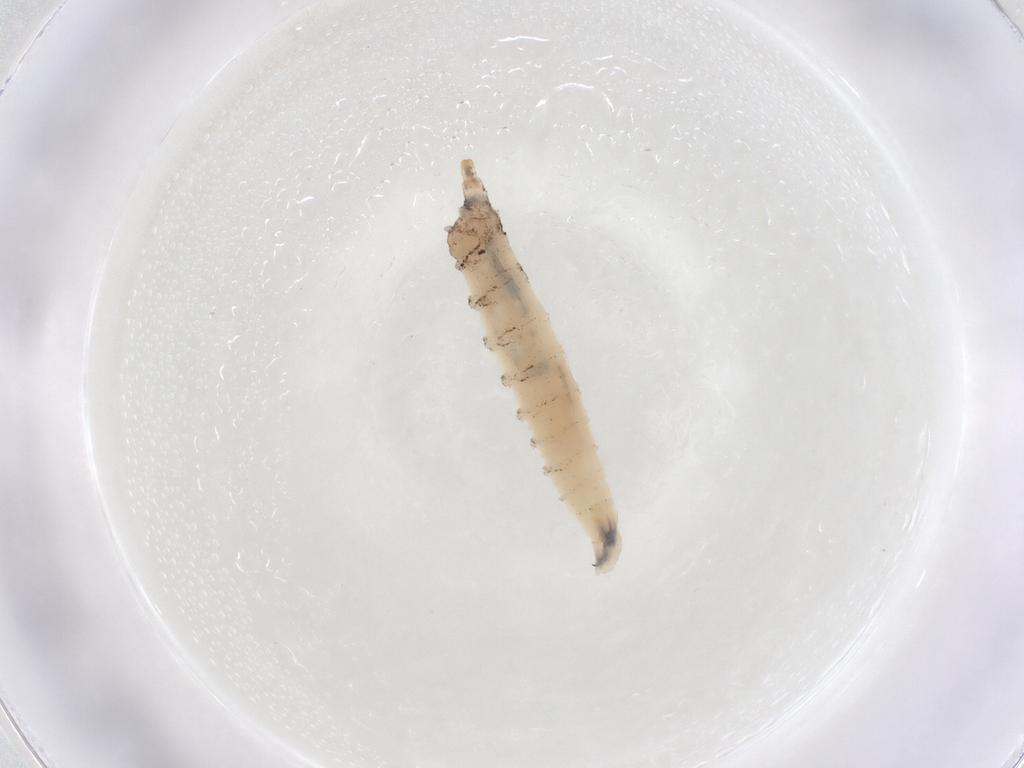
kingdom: Animalia
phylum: Arthropoda
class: Insecta
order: Diptera
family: Drosophilidae
